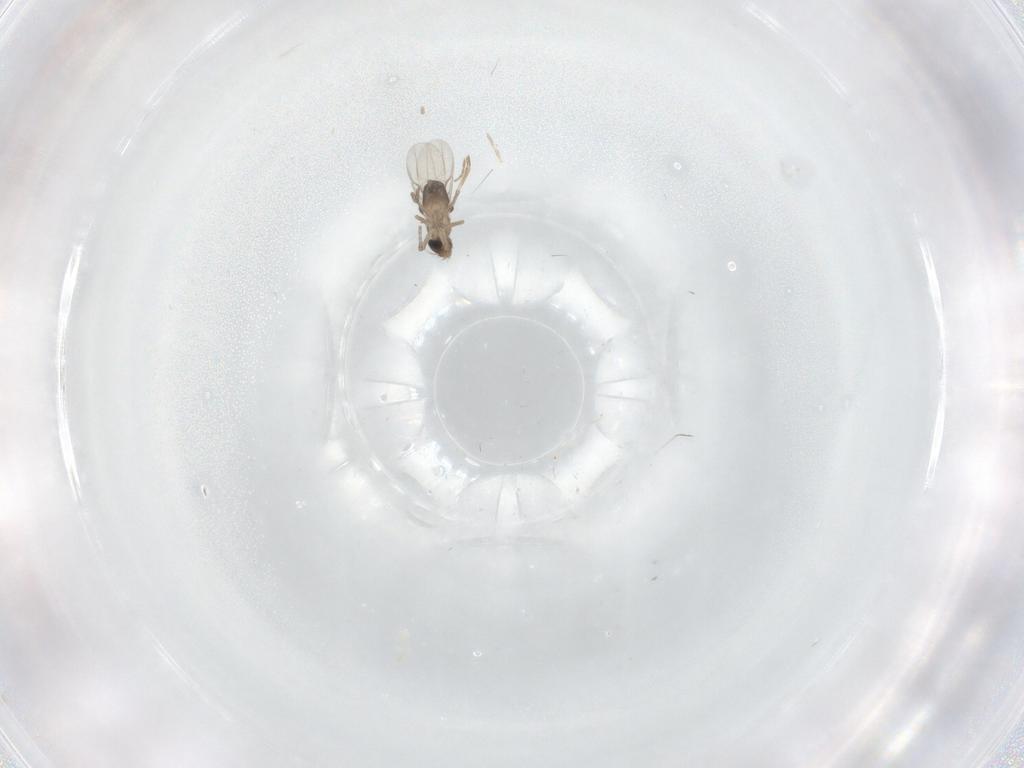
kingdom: Animalia
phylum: Arthropoda
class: Insecta
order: Diptera
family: Phoridae
